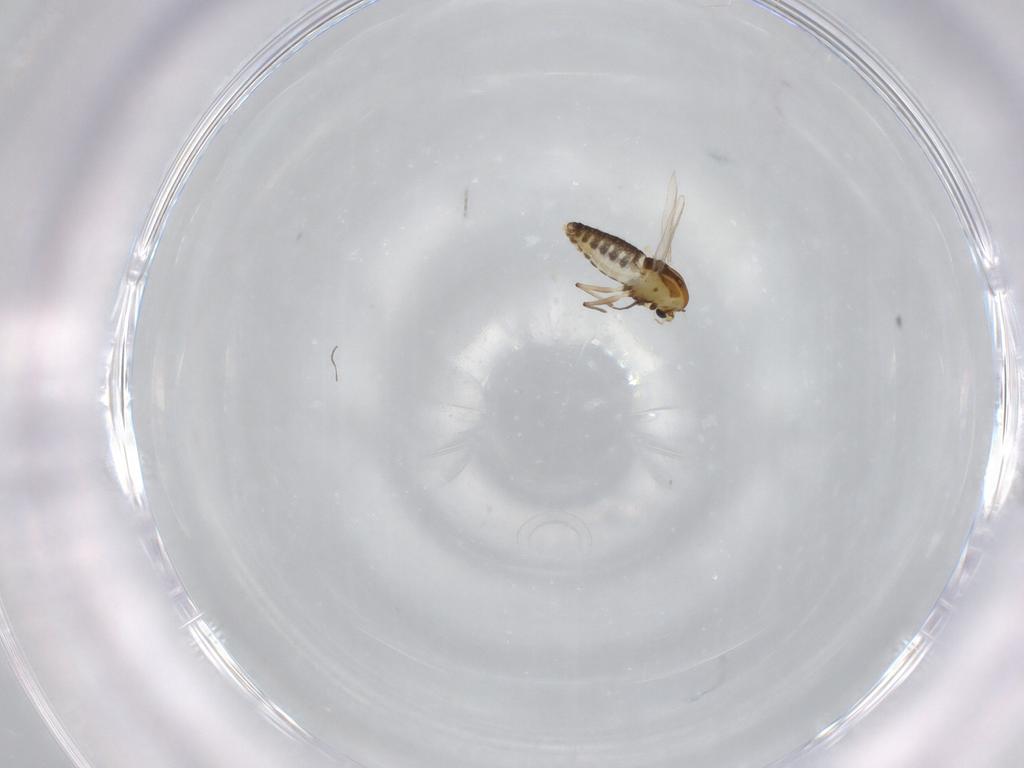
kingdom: Animalia
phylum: Arthropoda
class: Insecta
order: Diptera
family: Chironomidae
